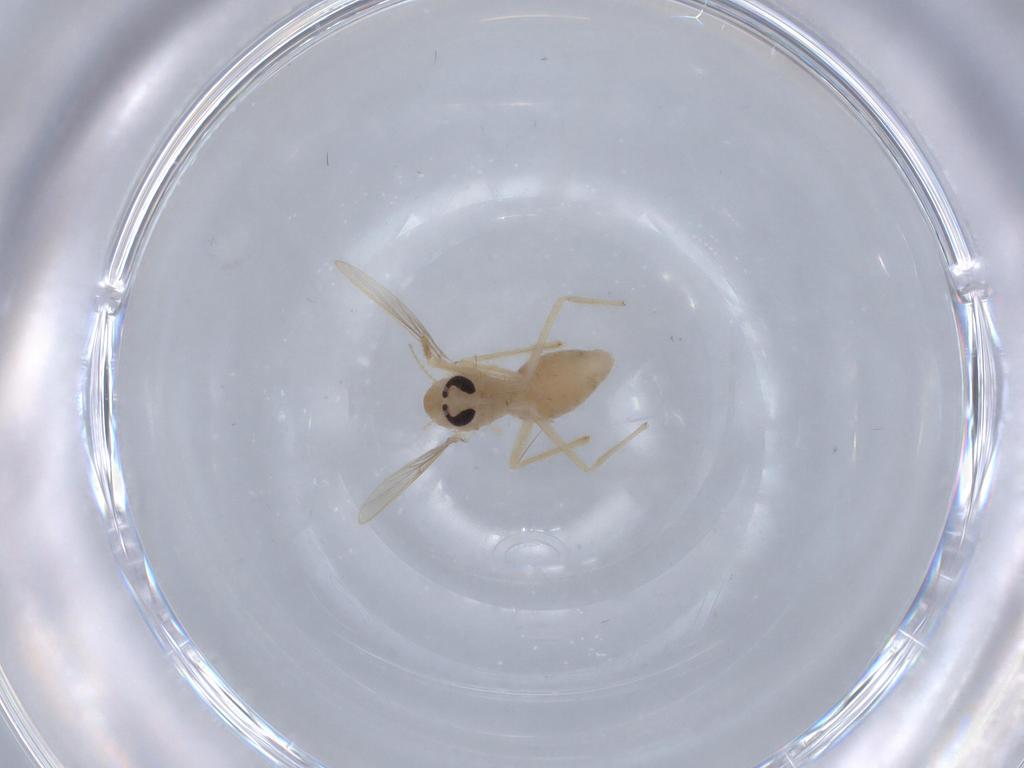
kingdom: Animalia
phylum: Arthropoda
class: Insecta
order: Diptera
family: Chironomidae
